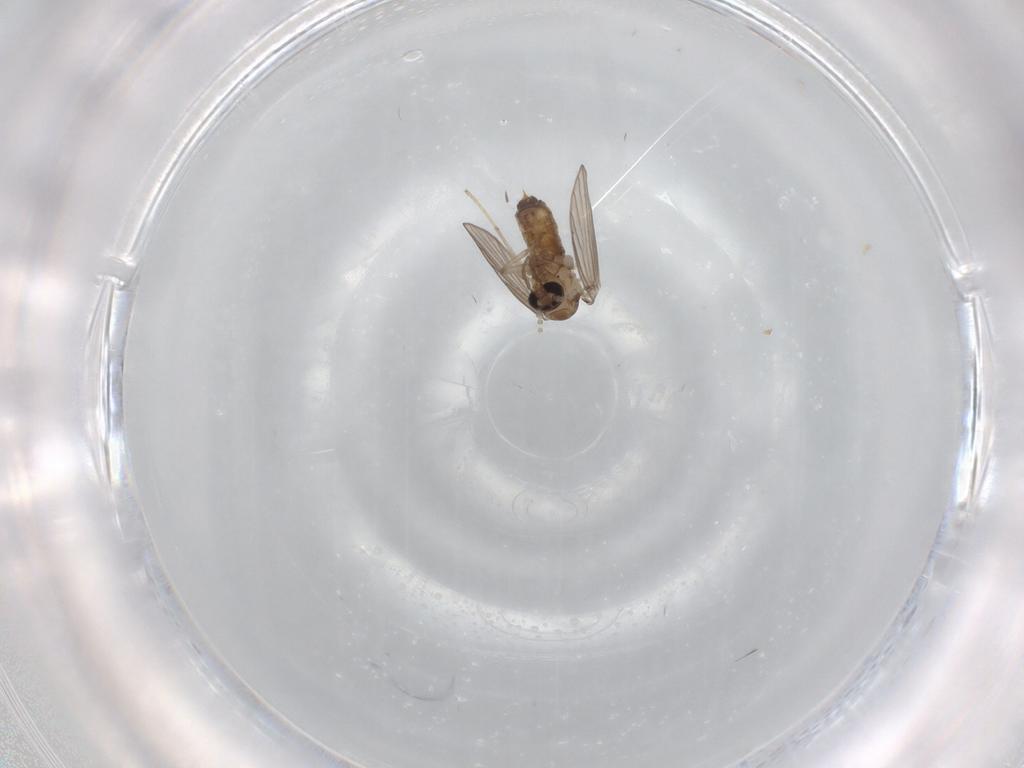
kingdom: Animalia
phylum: Arthropoda
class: Insecta
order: Diptera
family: Psychodidae
